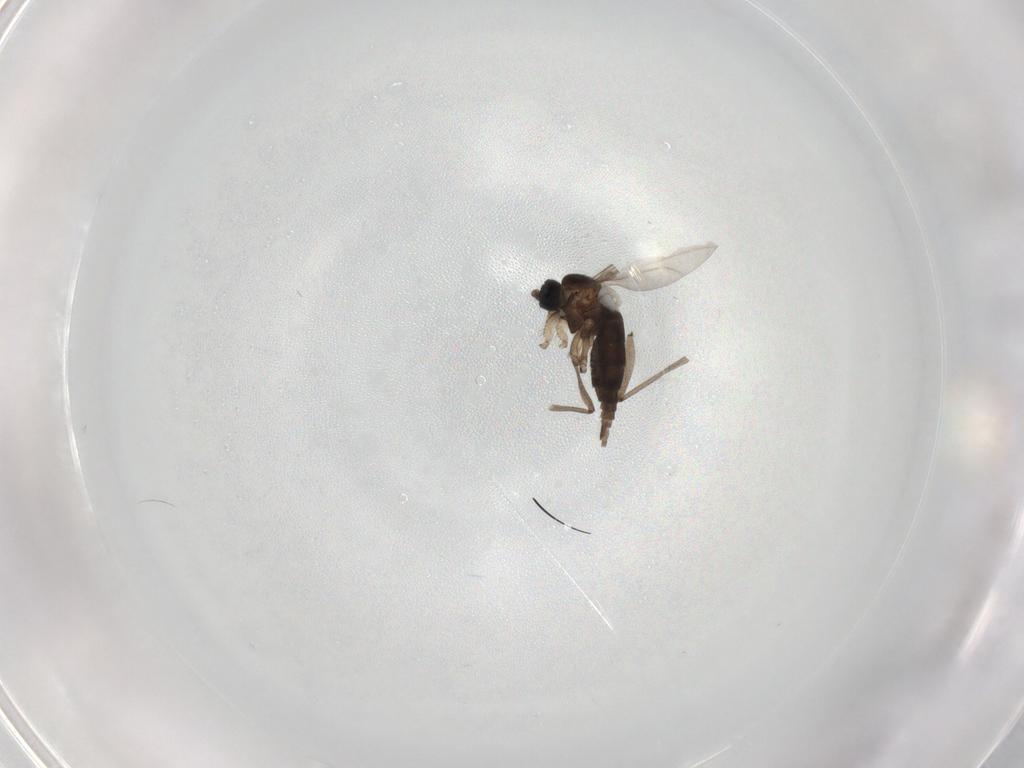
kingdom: Animalia
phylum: Arthropoda
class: Insecta
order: Diptera
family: Sciaridae
